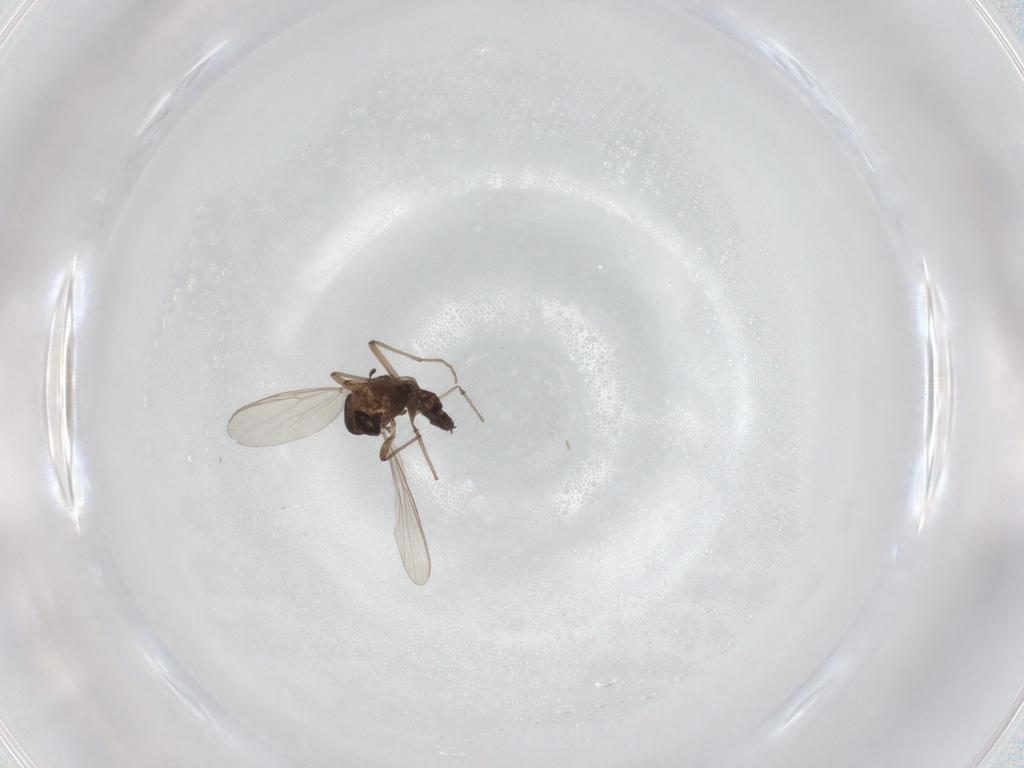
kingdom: Animalia
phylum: Arthropoda
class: Insecta
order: Diptera
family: Chironomidae
